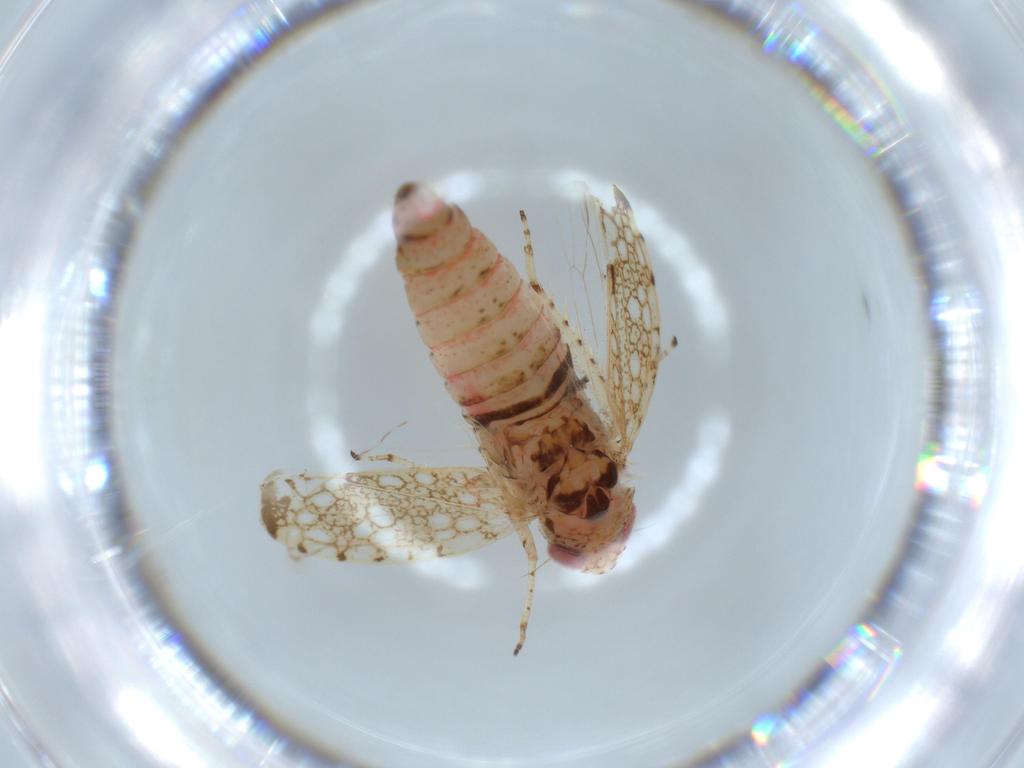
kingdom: Animalia
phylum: Arthropoda
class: Insecta
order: Hemiptera
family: Cicadellidae
